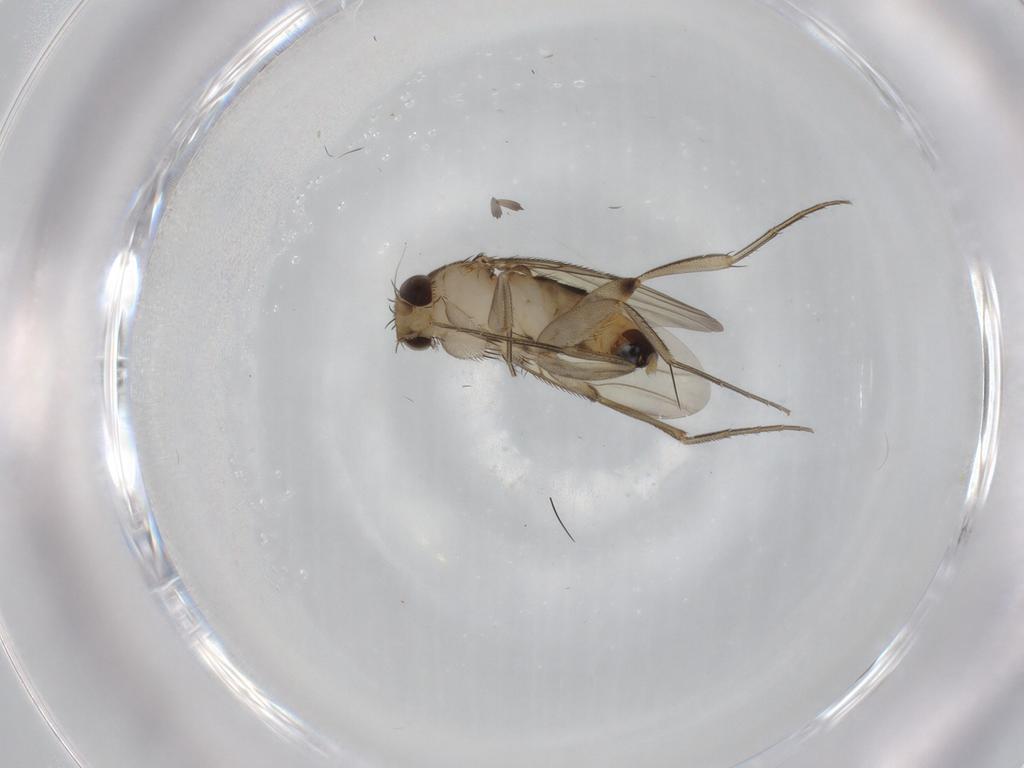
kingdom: Animalia
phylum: Arthropoda
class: Insecta
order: Diptera
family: Phoridae
